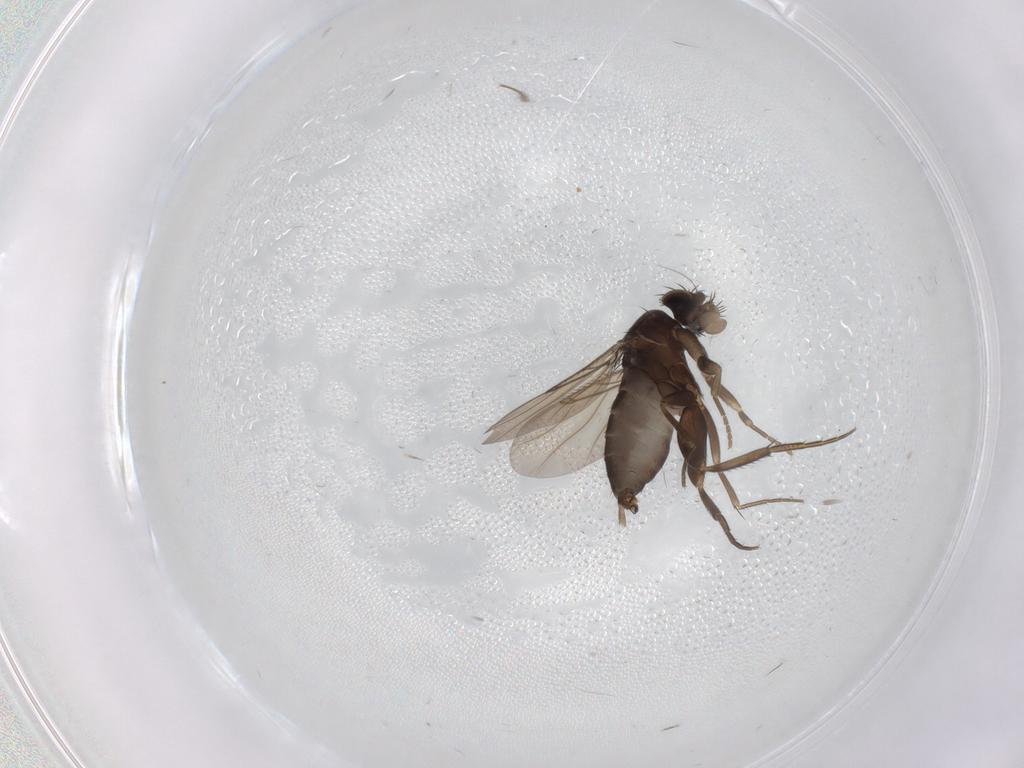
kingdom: Animalia
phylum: Arthropoda
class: Insecta
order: Diptera
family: Phoridae
